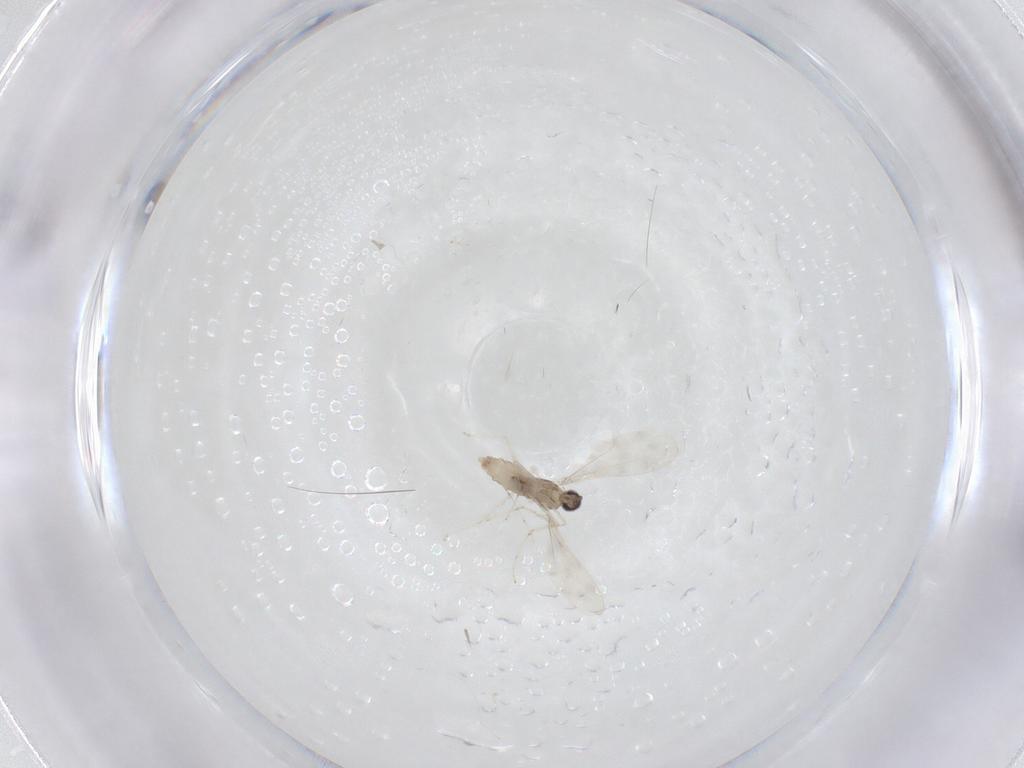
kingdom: Animalia
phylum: Arthropoda
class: Insecta
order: Diptera
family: Cecidomyiidae
